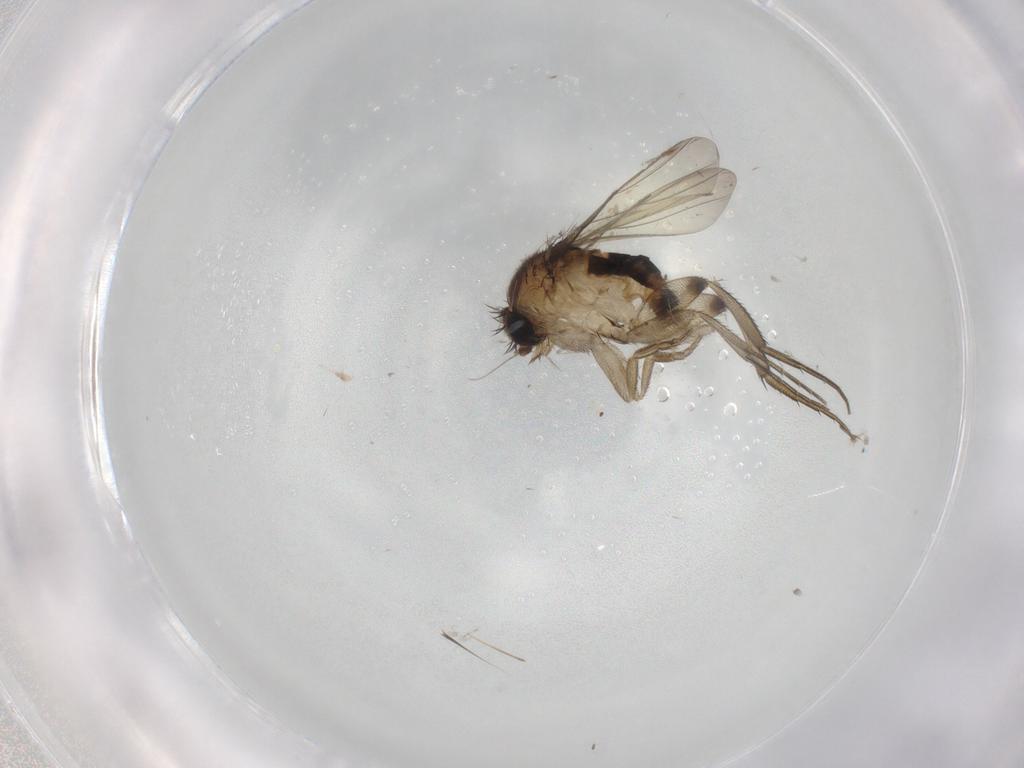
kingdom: Animalia
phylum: Arthropoda
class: Insecta
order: Diptera
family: Phoridae
